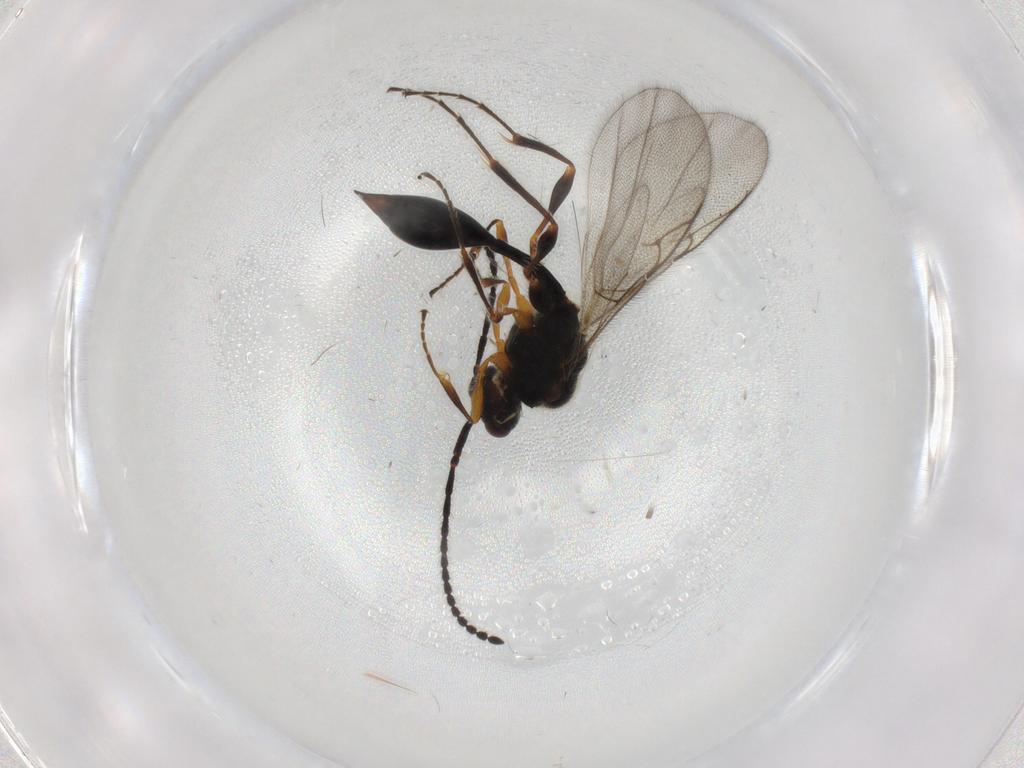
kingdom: Animalia
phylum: Arthropoda
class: Insecta
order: Hymenoptera
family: Diapriidae
